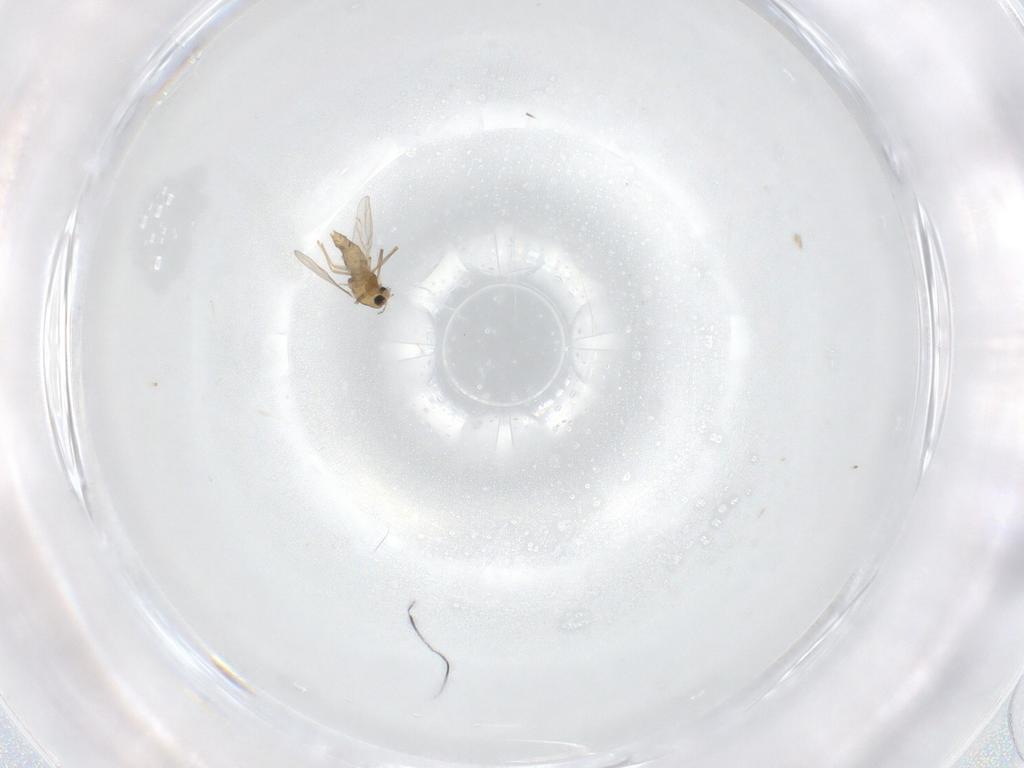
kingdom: Animalia
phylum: Arthropoda
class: Insecta
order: Diptera
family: Chironomidae
